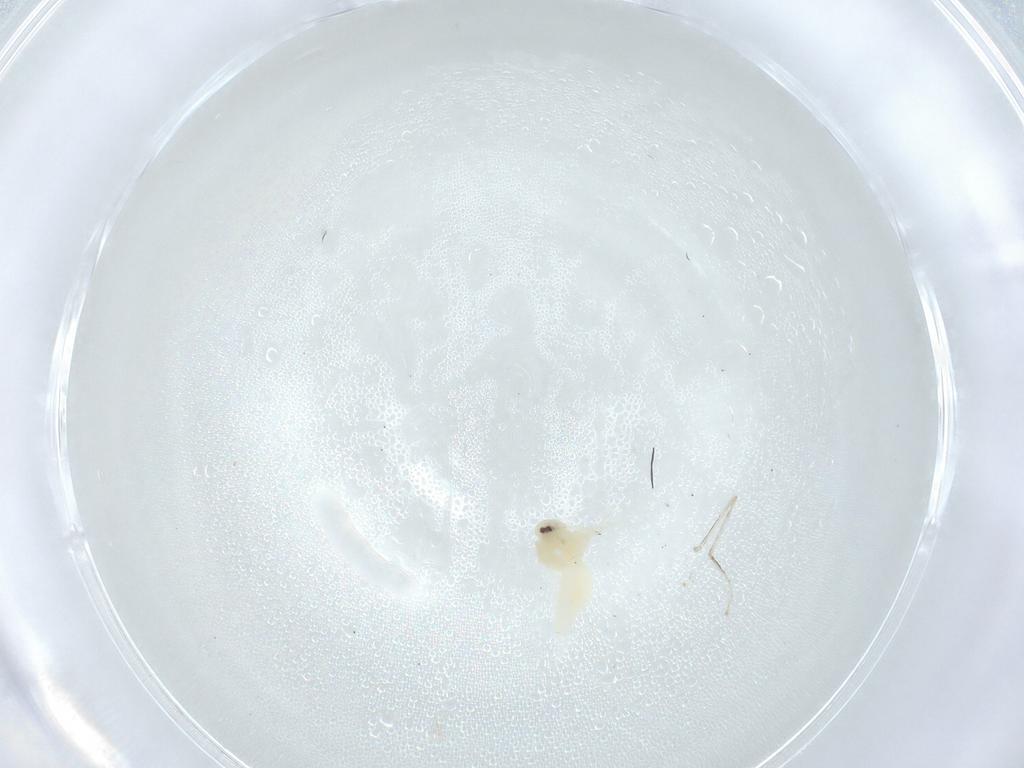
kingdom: Animalia
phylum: Arthropoda
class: Insecta
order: Hemiptera
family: Aleyrodidae
